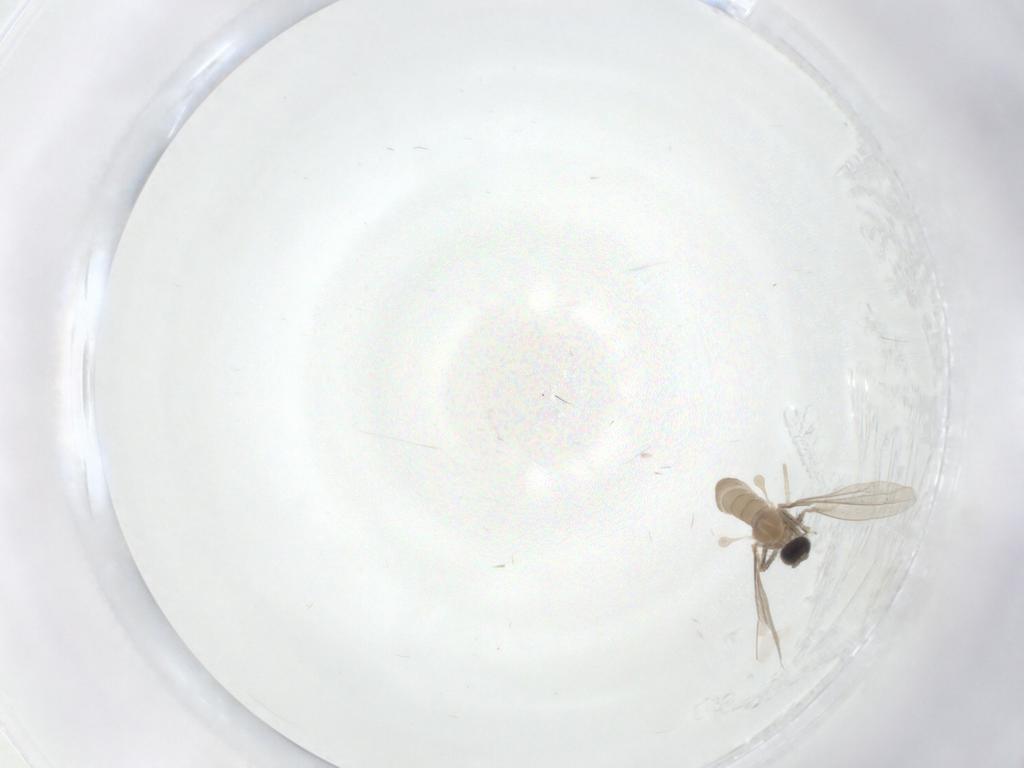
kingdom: Animalia
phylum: Arthropoda
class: Insecta
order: Diptera
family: Cecidomyiidae
